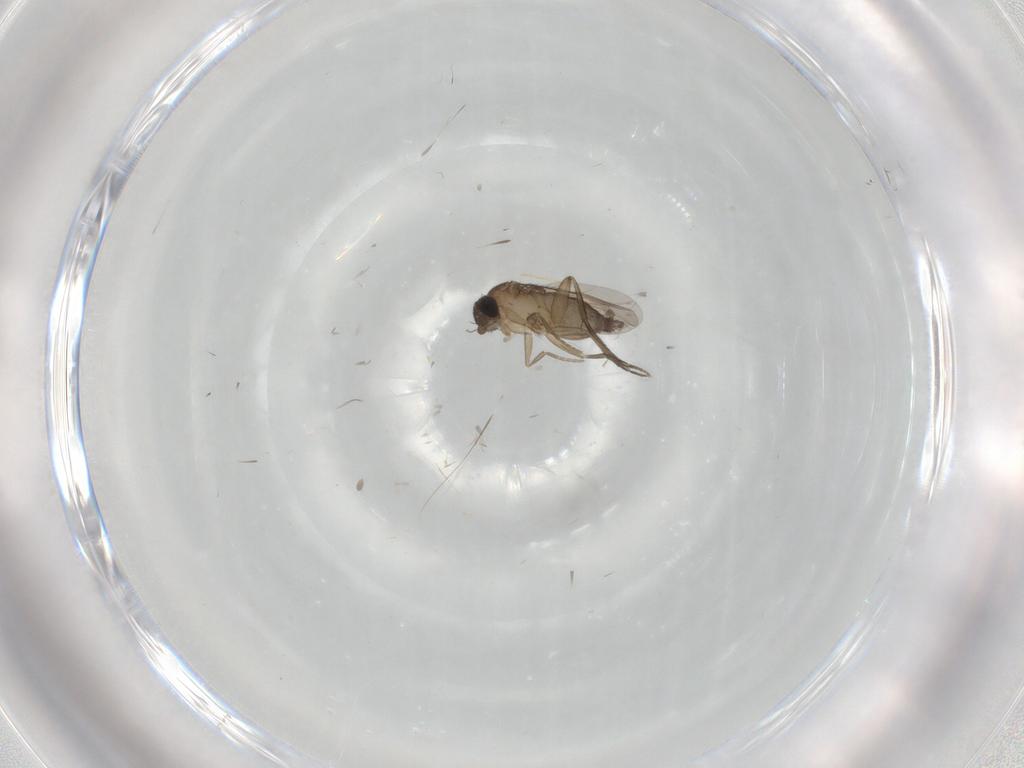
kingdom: Animalia
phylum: Arthropoda
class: Insecta
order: Diptera
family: Phoridae
